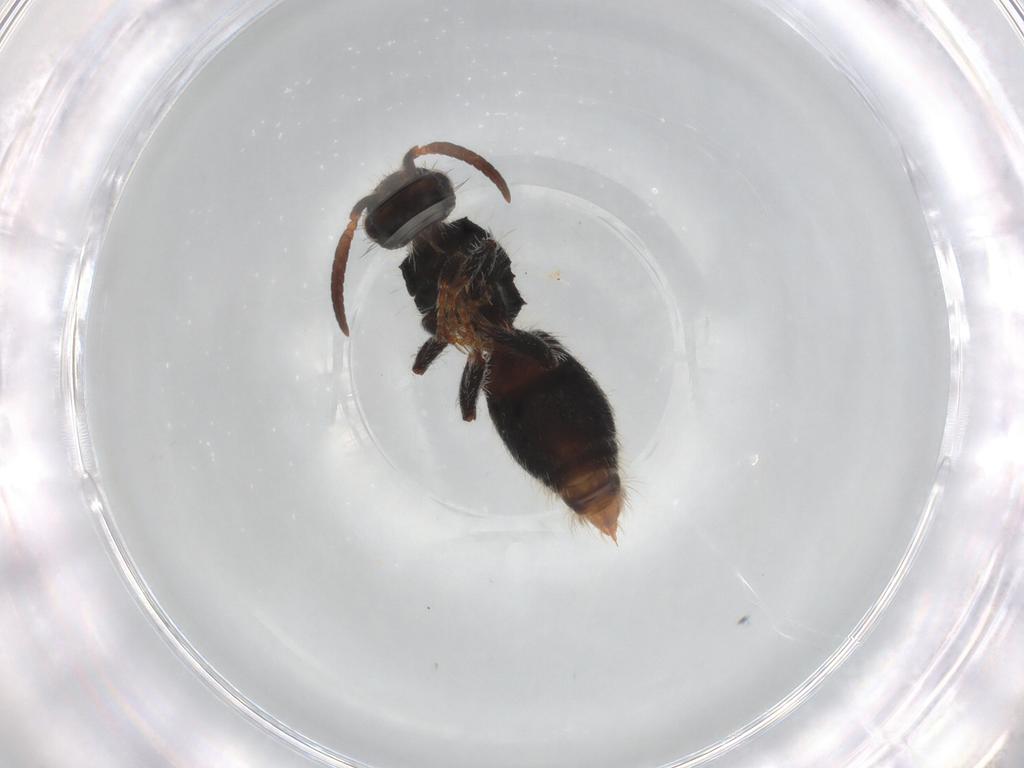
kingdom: Animalia
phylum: Arthropoda
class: Insecta
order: Hymenoptera
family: Mutillidae
